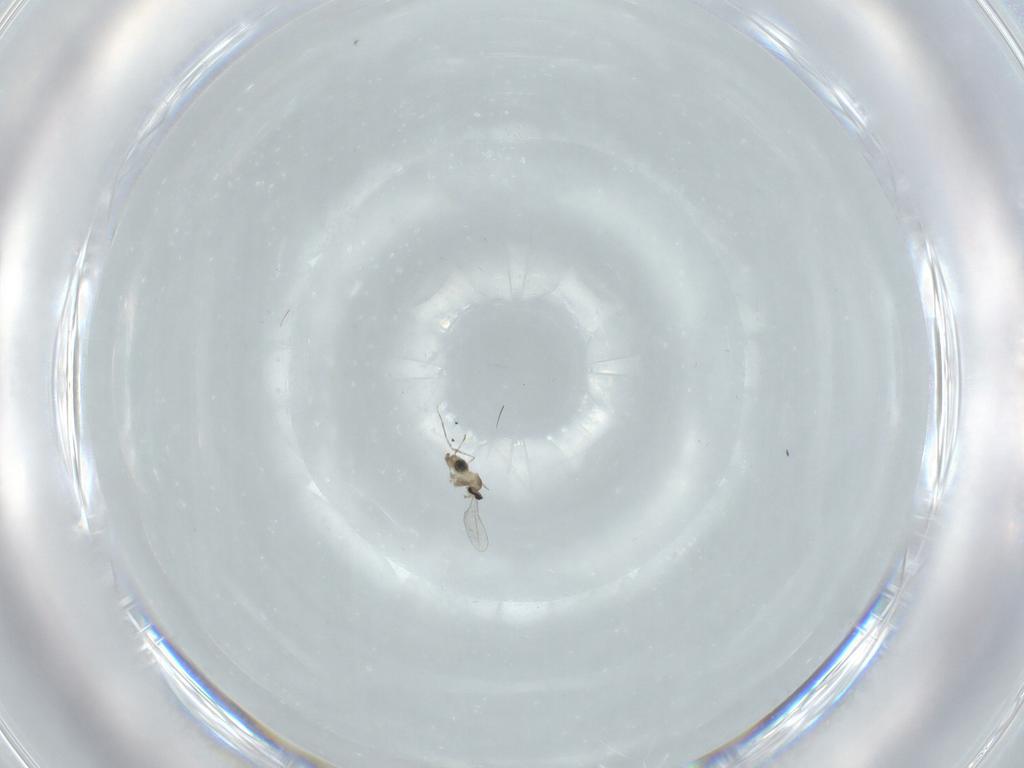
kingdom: Animalia
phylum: Arthropoda
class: Insecta
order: Diptera
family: Cecidomyiidae
